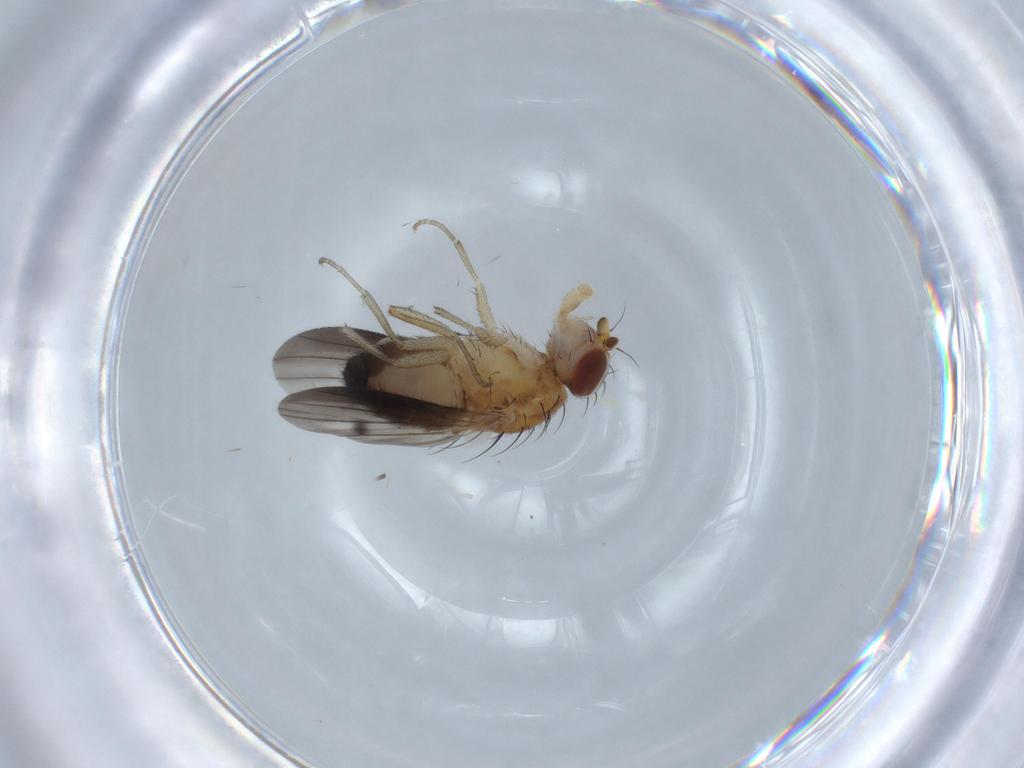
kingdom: Animalia
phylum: Arthropoda
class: Insecta
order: Diptera
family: Heleomyzidae
